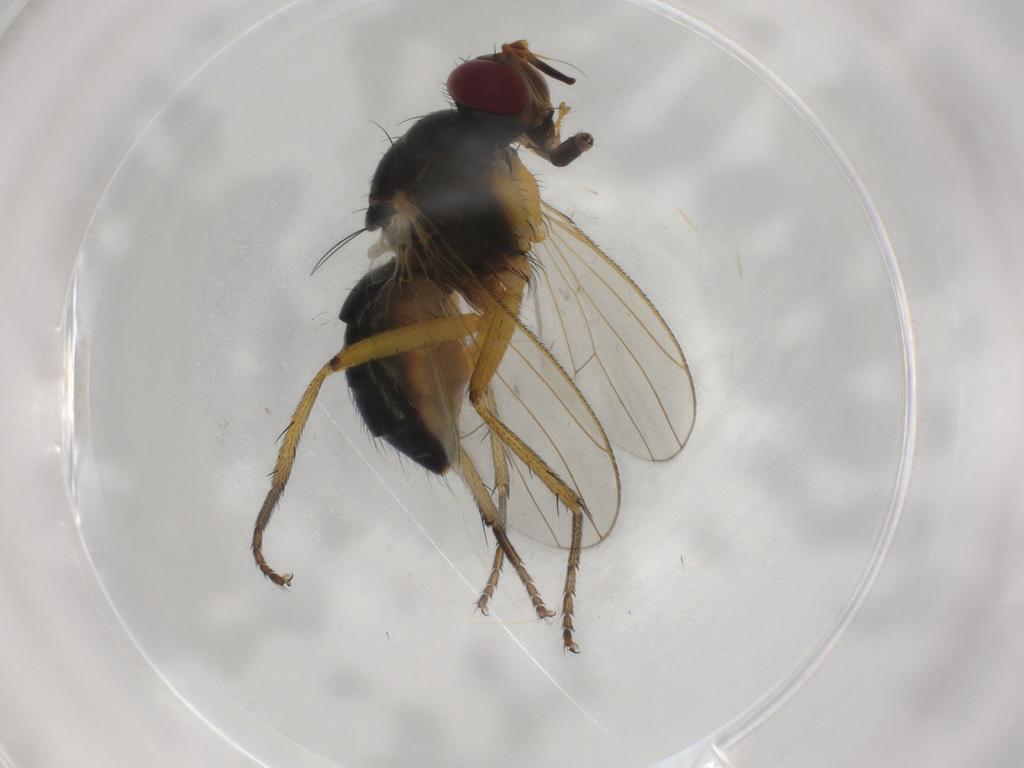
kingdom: Animalia
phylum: Arthropoda
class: Insecta
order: Diptera
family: Muscidae
